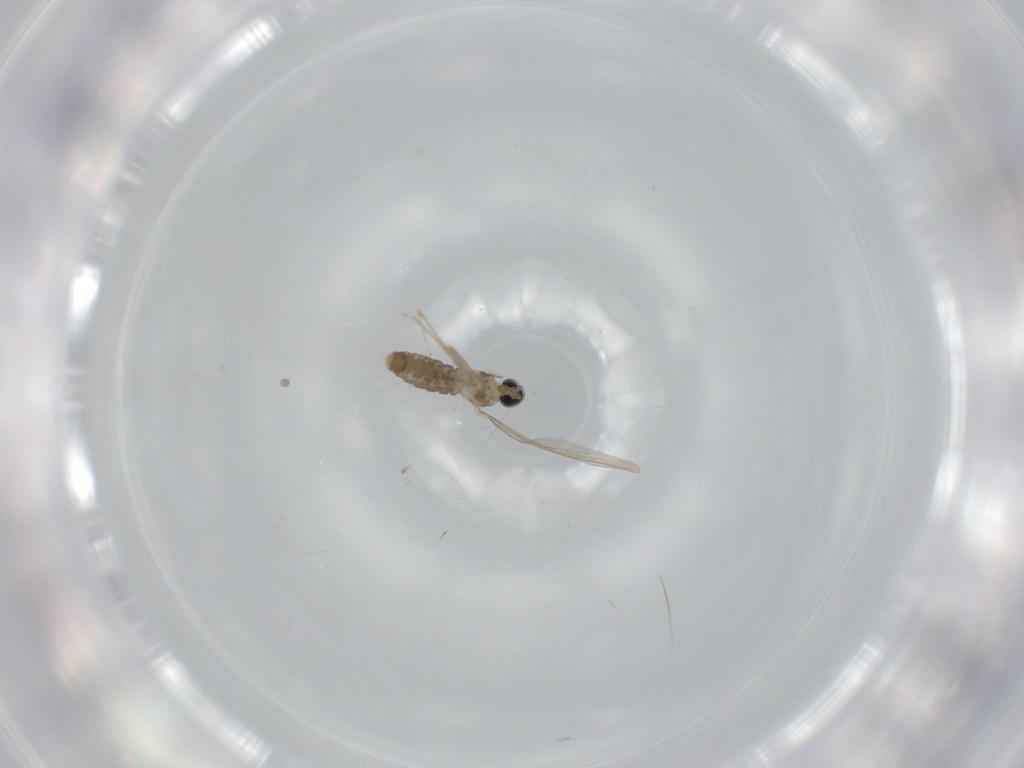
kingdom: Animalia
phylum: Arthropoda
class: Insecta
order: Diptera
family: Cecidomyiidae
